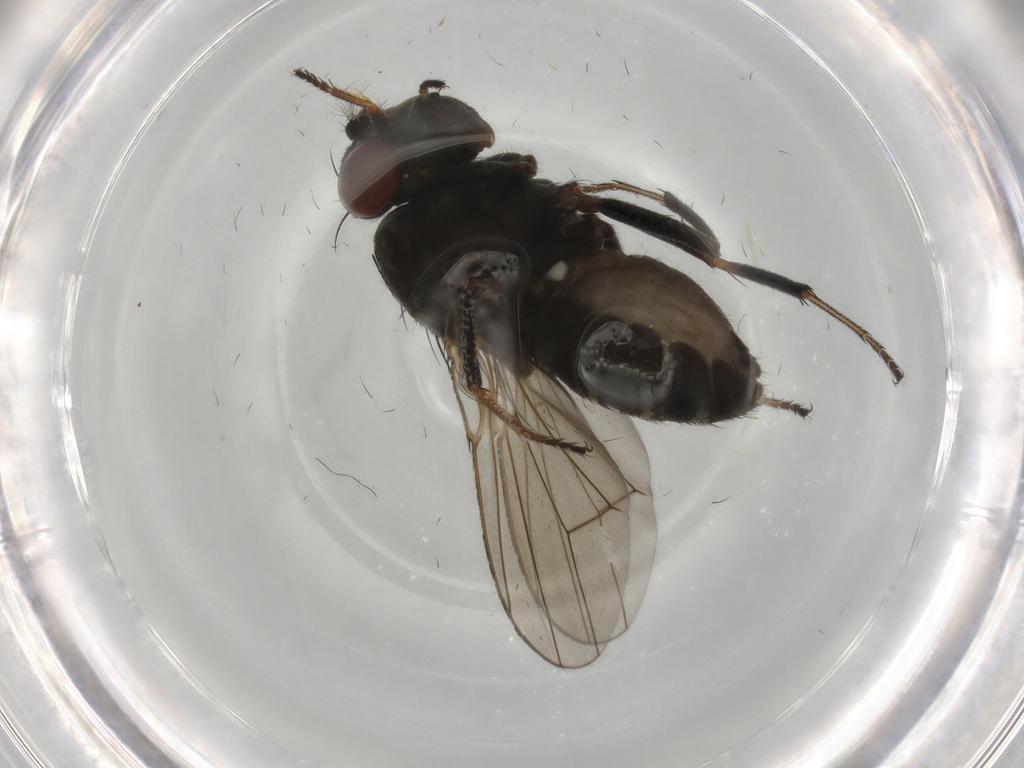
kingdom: Animalia
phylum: Arthropoda
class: Insecta
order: Diptera
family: Ephydridae
